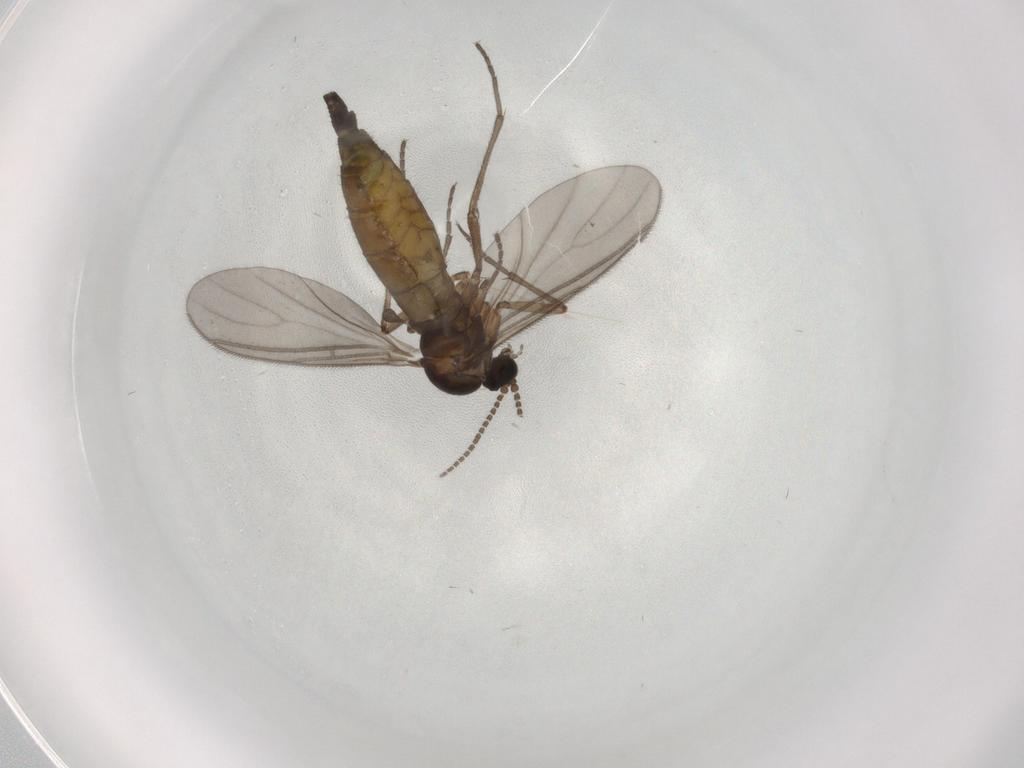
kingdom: Animalia
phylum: Arthropoda
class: Insecta
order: Diptera
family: Sciaridae
